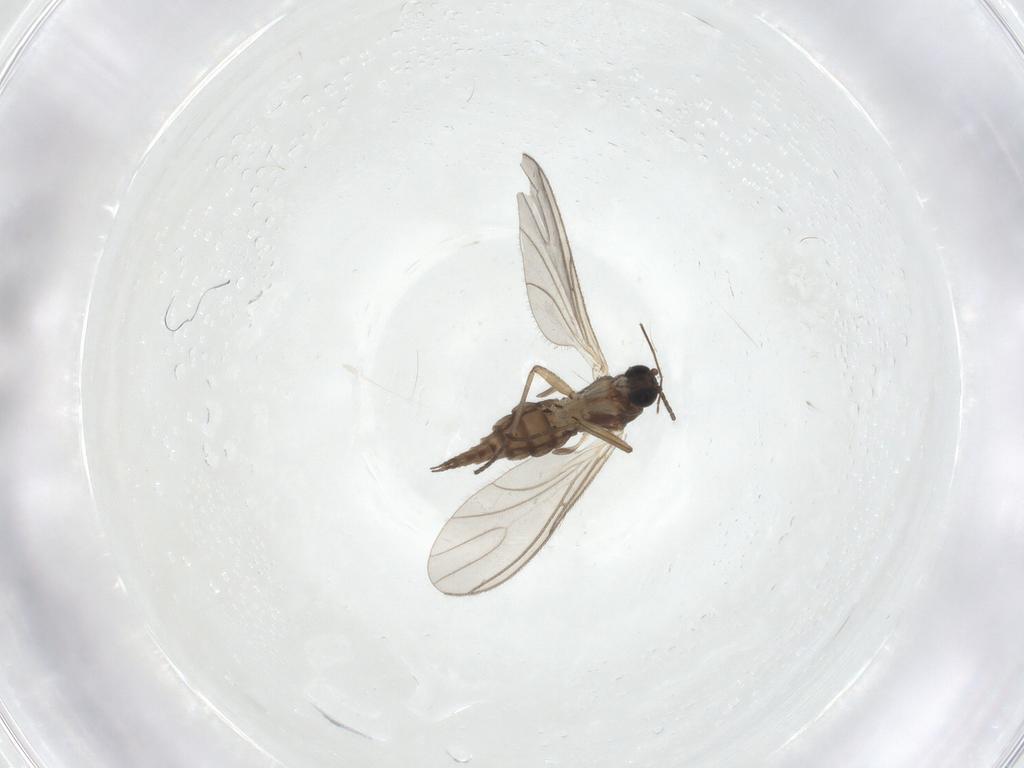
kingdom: Animalia
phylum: Arthropoda
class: Insecta
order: Diptera
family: Sciaridae
